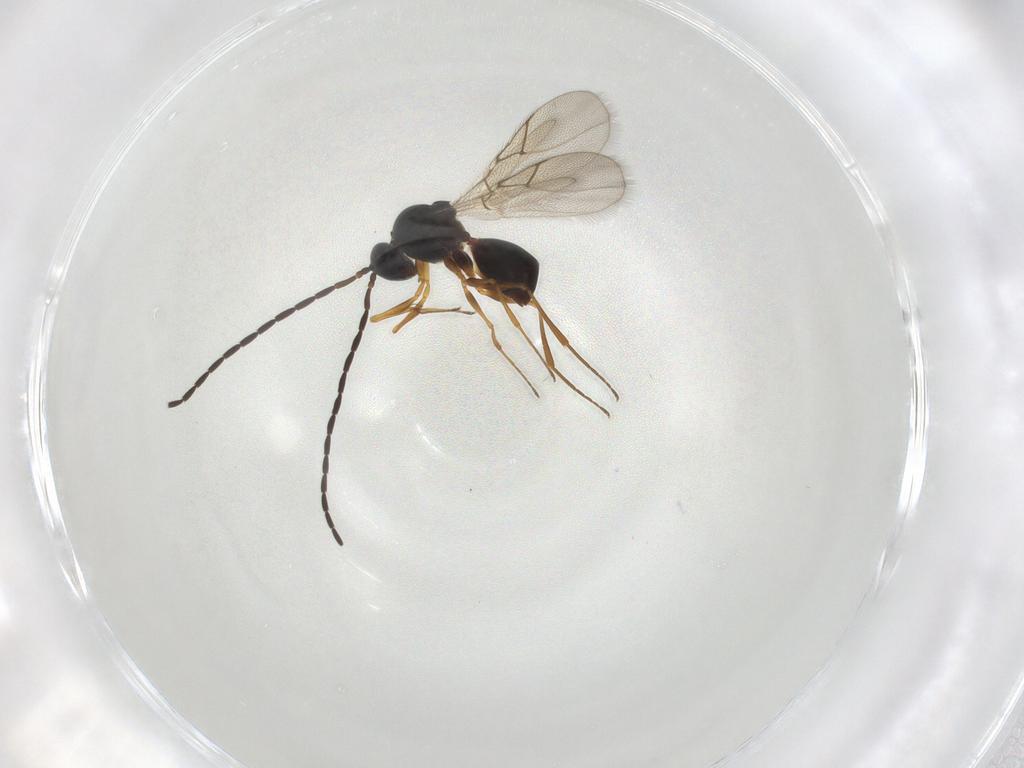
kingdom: Animalia
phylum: Arthropoda
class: Insecta
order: Hymenoptera
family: Figitidae
